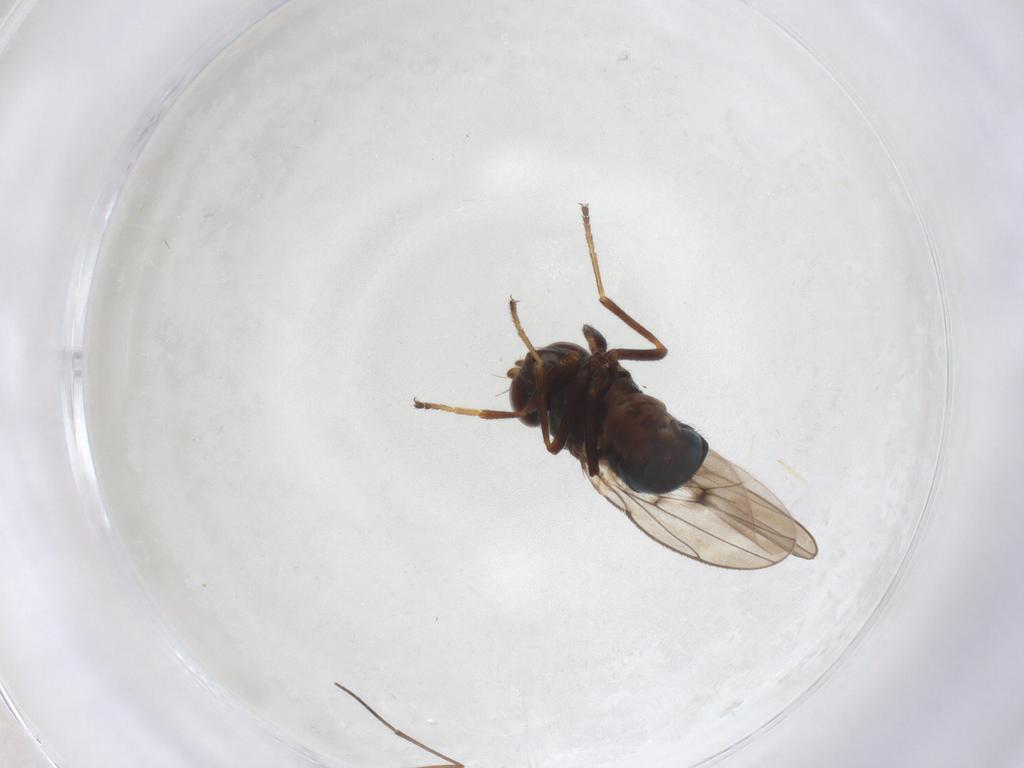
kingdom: Animalia
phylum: Arthropoda
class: Insecta
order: Diptera
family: Ephydridae
